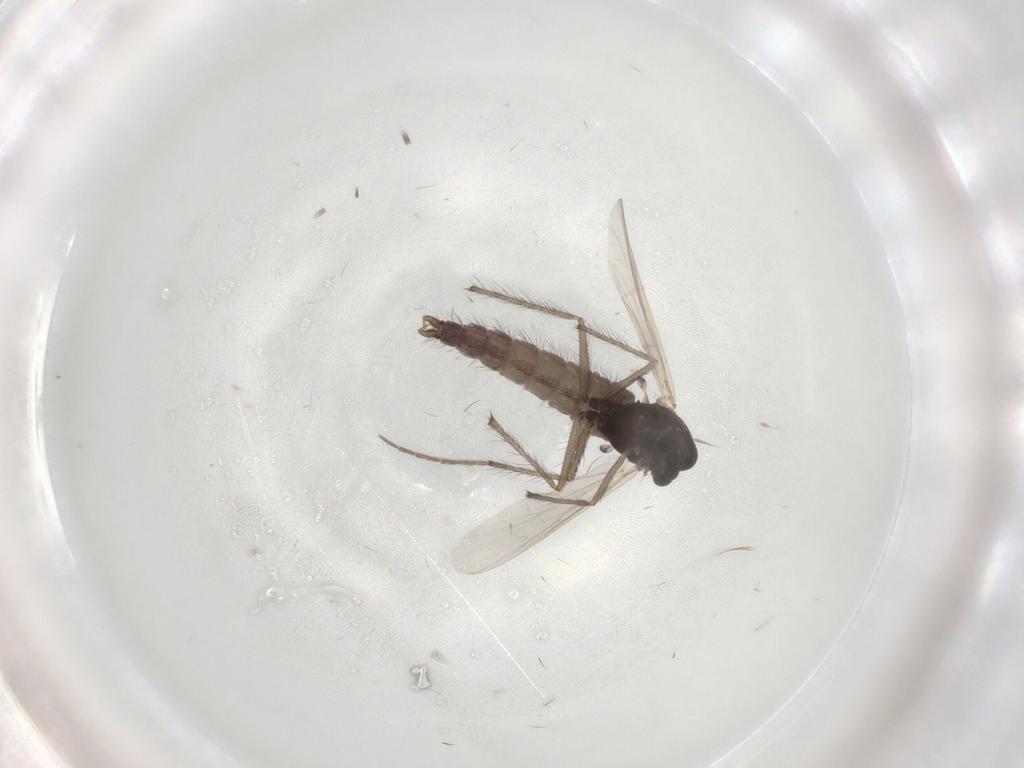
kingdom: Animalia
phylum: Arthropoda
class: Insecta
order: Diptera
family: Chironomidae
